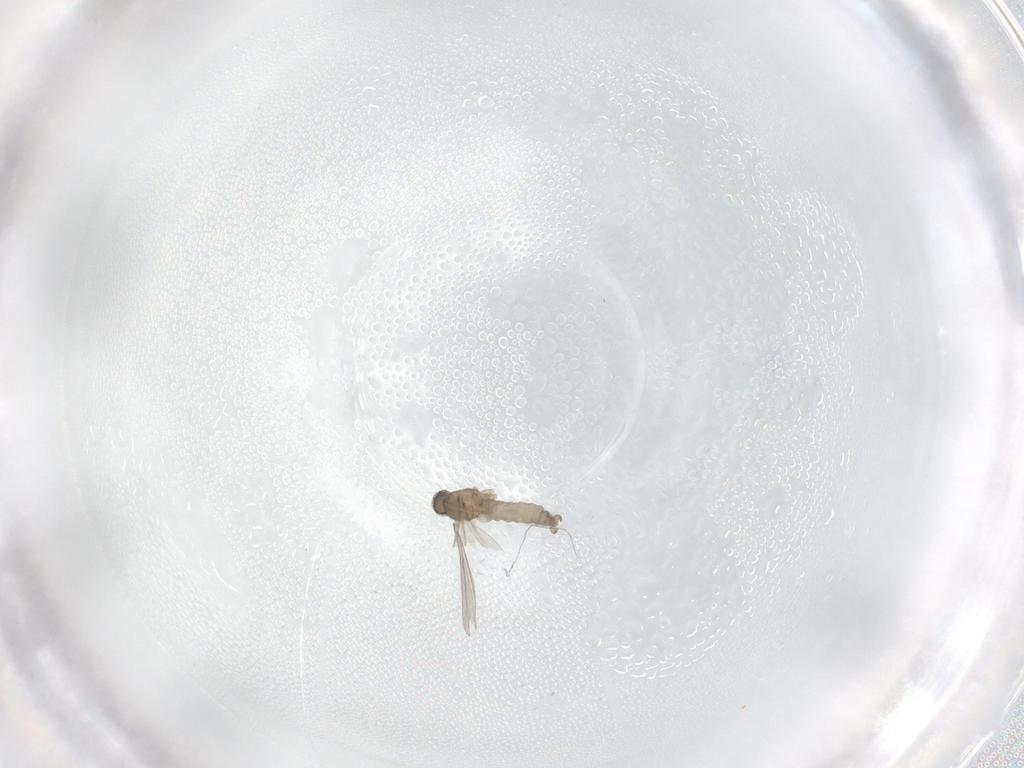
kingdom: Animalia
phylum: Arthropoda
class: Insecta
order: Diptera
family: Cecidomyiidae
